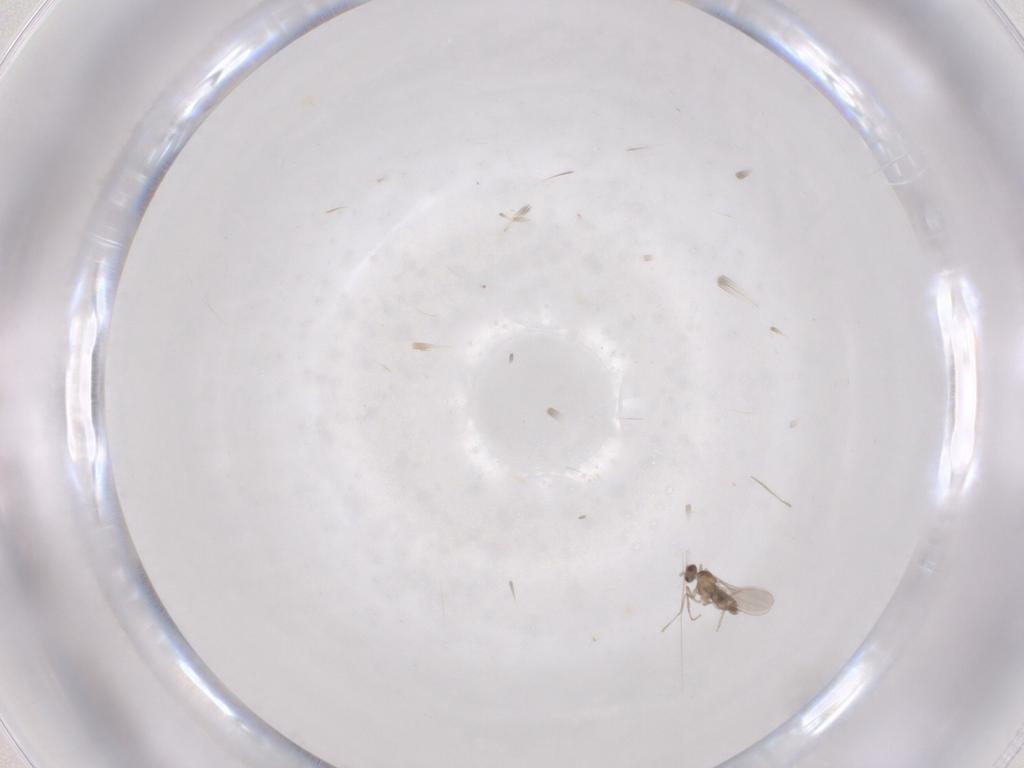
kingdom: Animalia
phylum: Arthropoda
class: Insecta
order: Diptera
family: Cecidomyiidae
